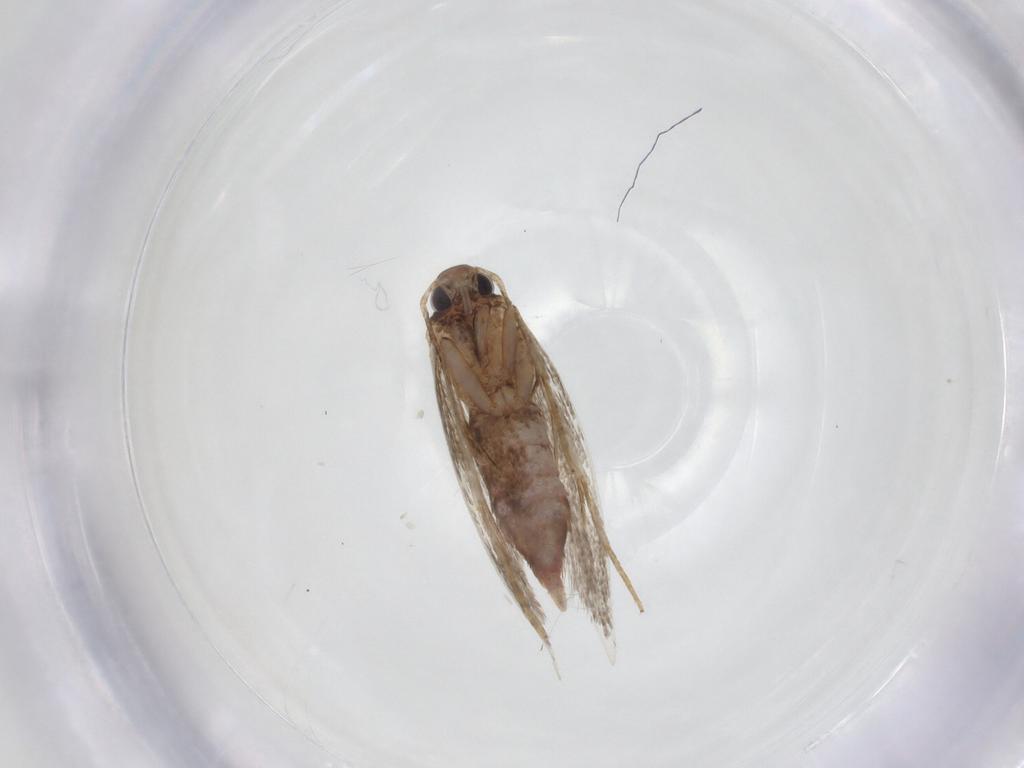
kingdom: Animalia
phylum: Arthropoda
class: Insecta
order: Lepidoptera
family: Gelechiidae
